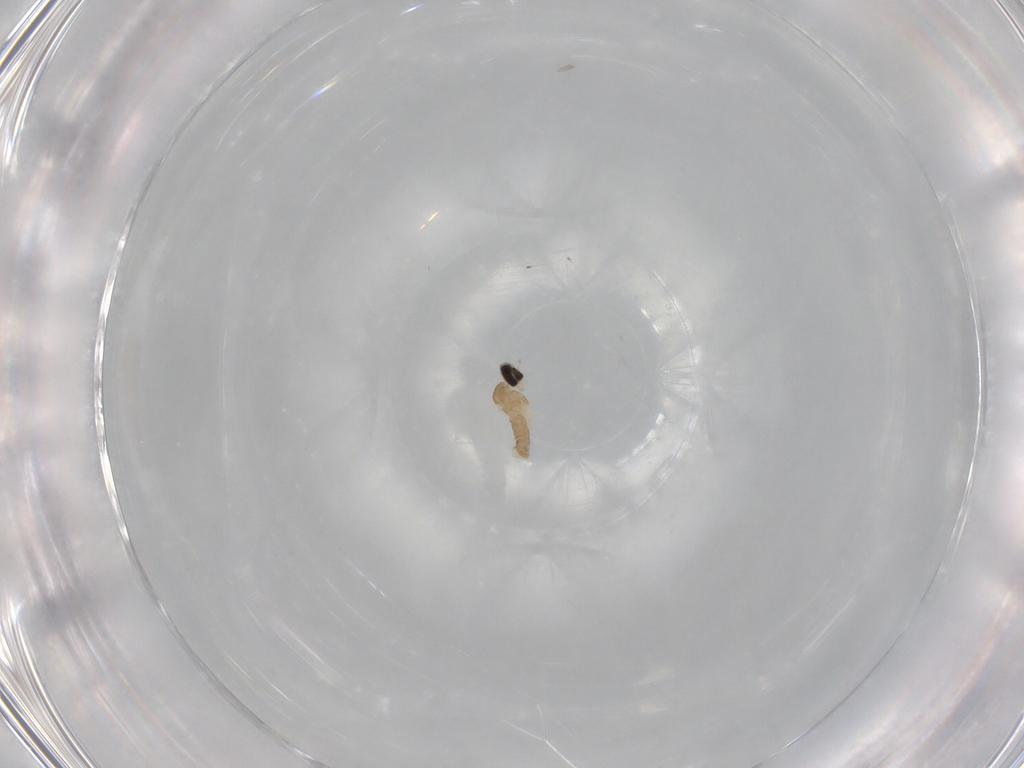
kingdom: Animalia
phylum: Arthropoda
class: Insecta
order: Diptera
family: Cecidomyiidae
